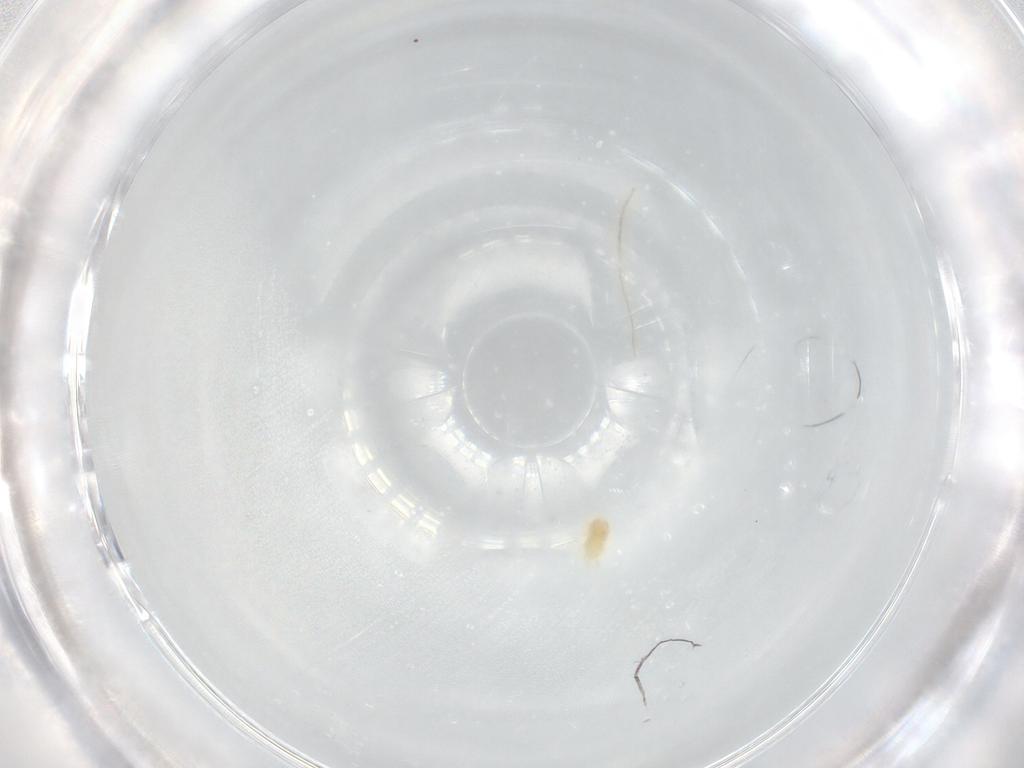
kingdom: Animalia
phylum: Arthropoda
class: Arachnida
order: Trombidiformes
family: Eupodidae
